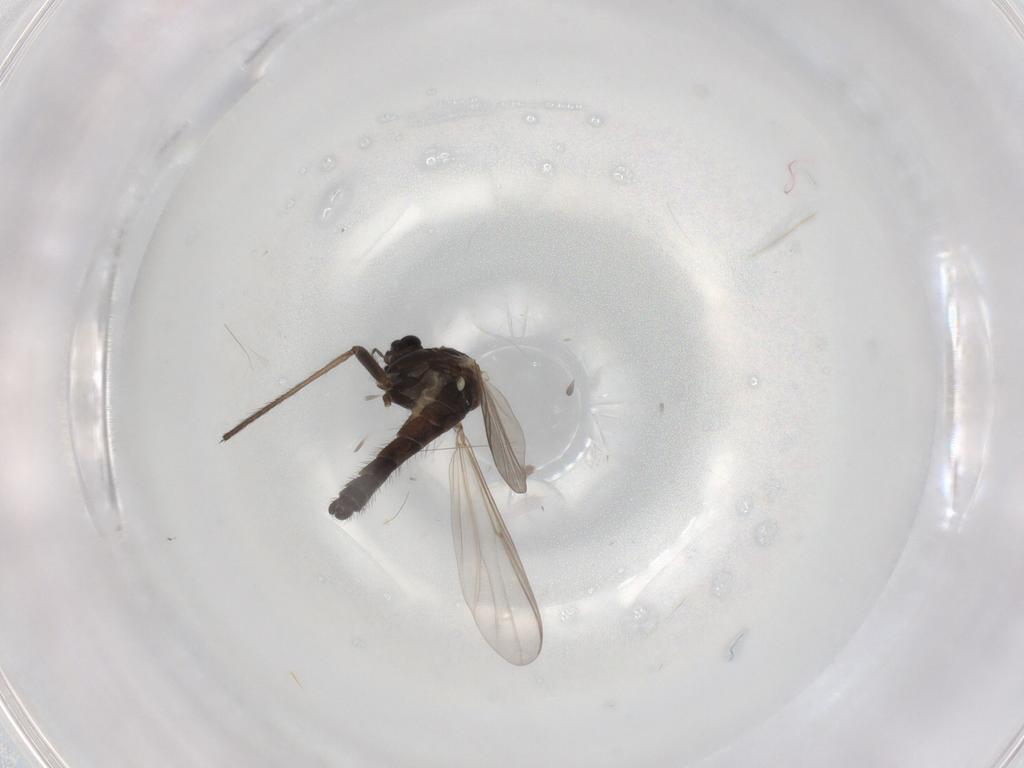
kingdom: Animalia
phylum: Arthropoda
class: Insecta
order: Diptera
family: Chironomidae
